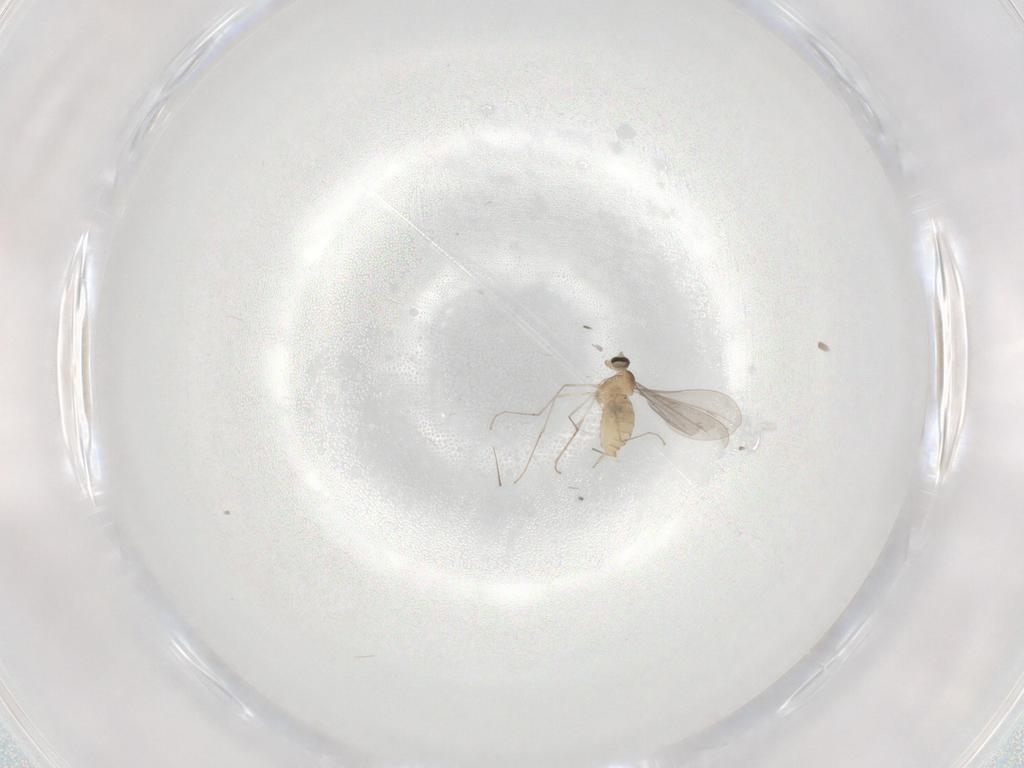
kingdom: Animalia
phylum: Arthropoda
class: Insecta
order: Diptera
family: Cecidomyiidae
